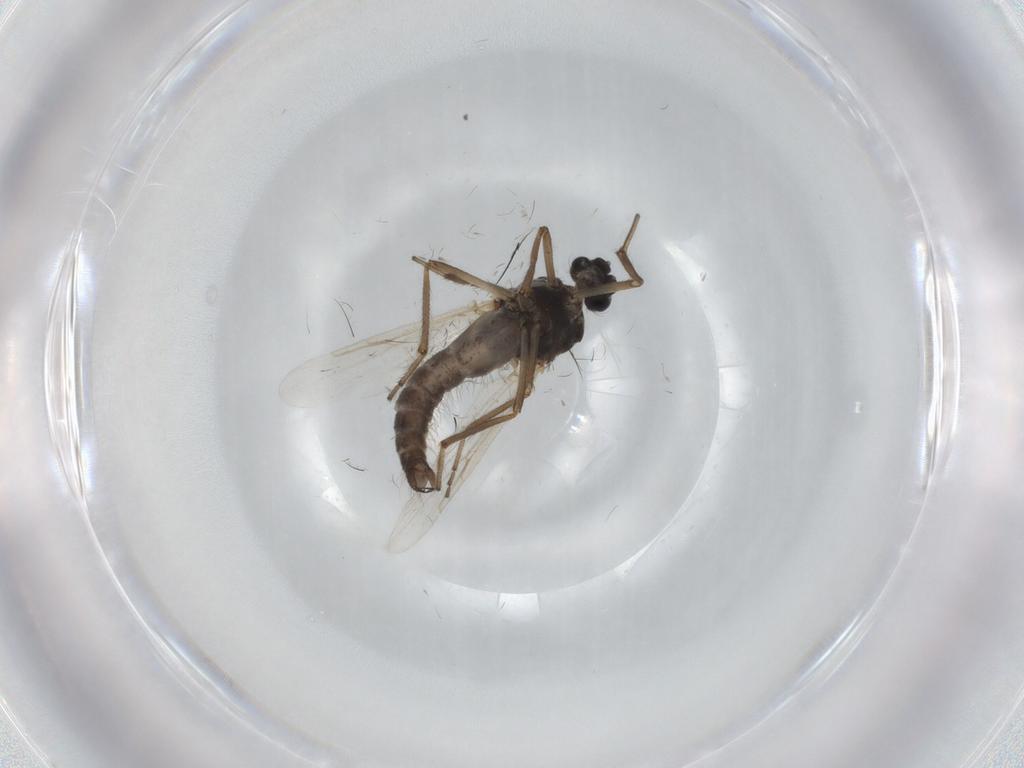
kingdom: Animalia
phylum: Arthropoda
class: Insecta
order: Diptera
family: Ceratopogonidae
